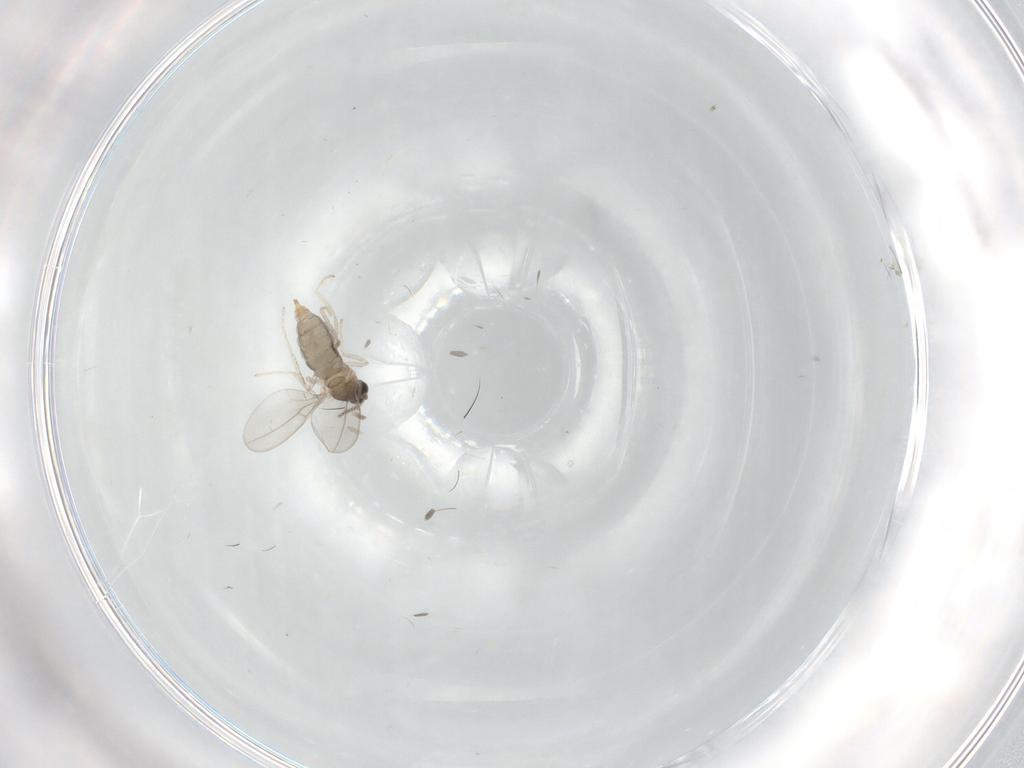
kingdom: Animalia
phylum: Arthropoda
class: Insecta
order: Diptera
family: Cecidomyiidae
